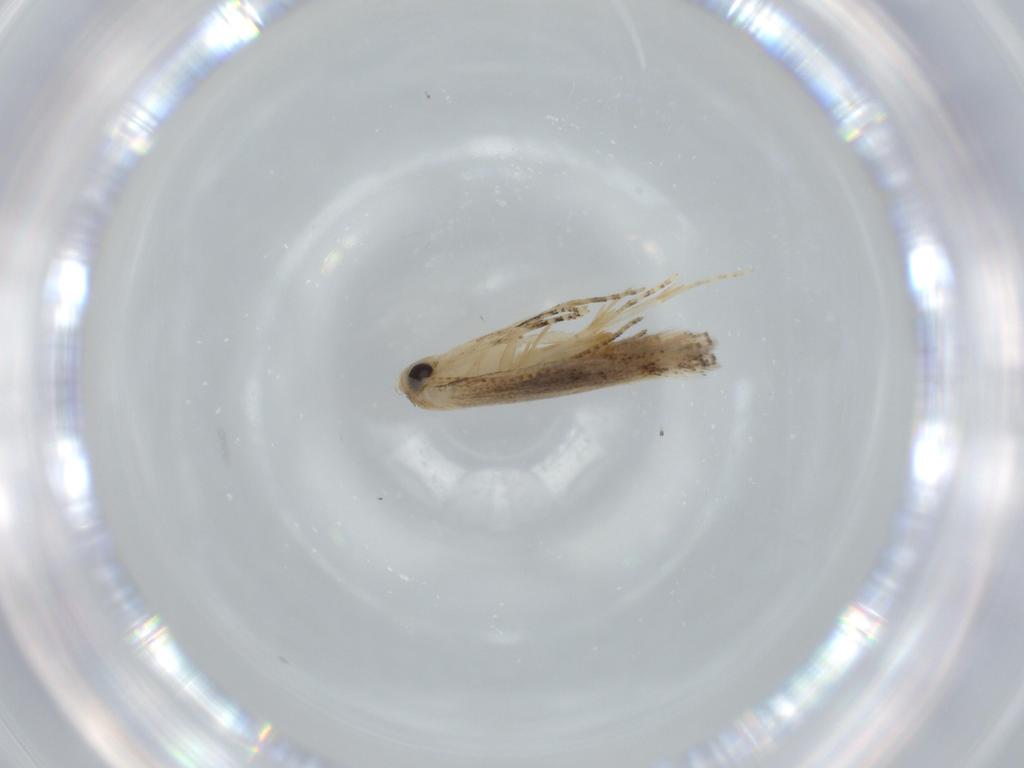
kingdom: Animalia
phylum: Arthropoda
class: Insecta
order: Lepidoptera
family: Bucculatricidae
